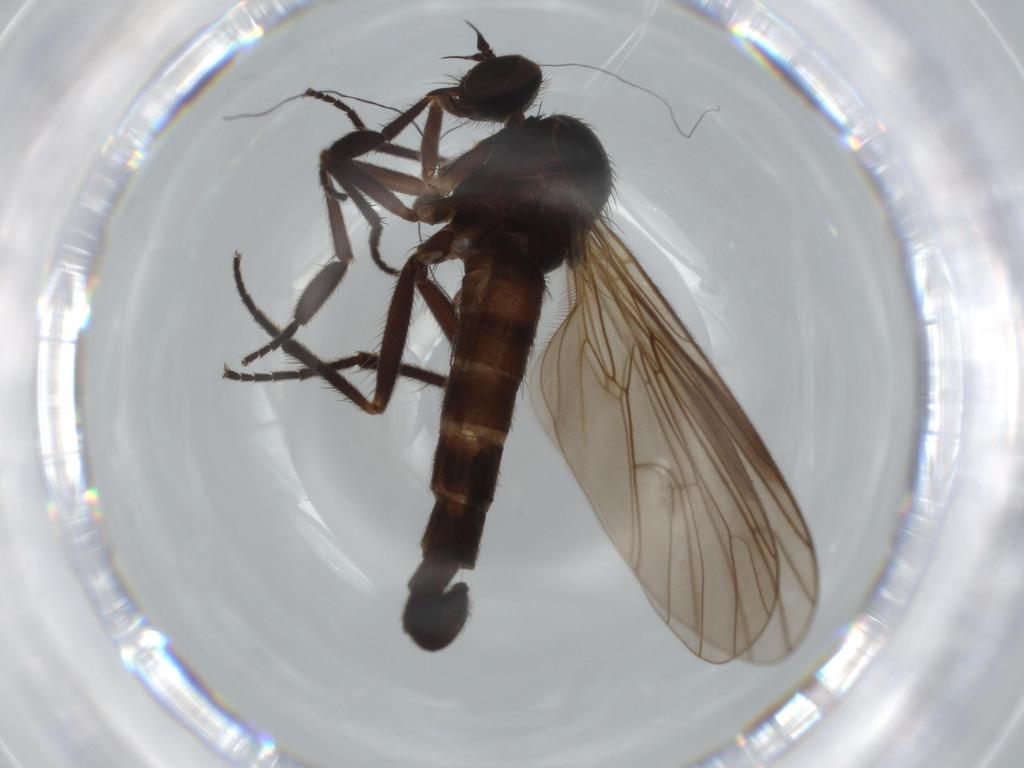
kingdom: Animalia
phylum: Arthropoda
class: Insecta
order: Diptera
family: Empididae
